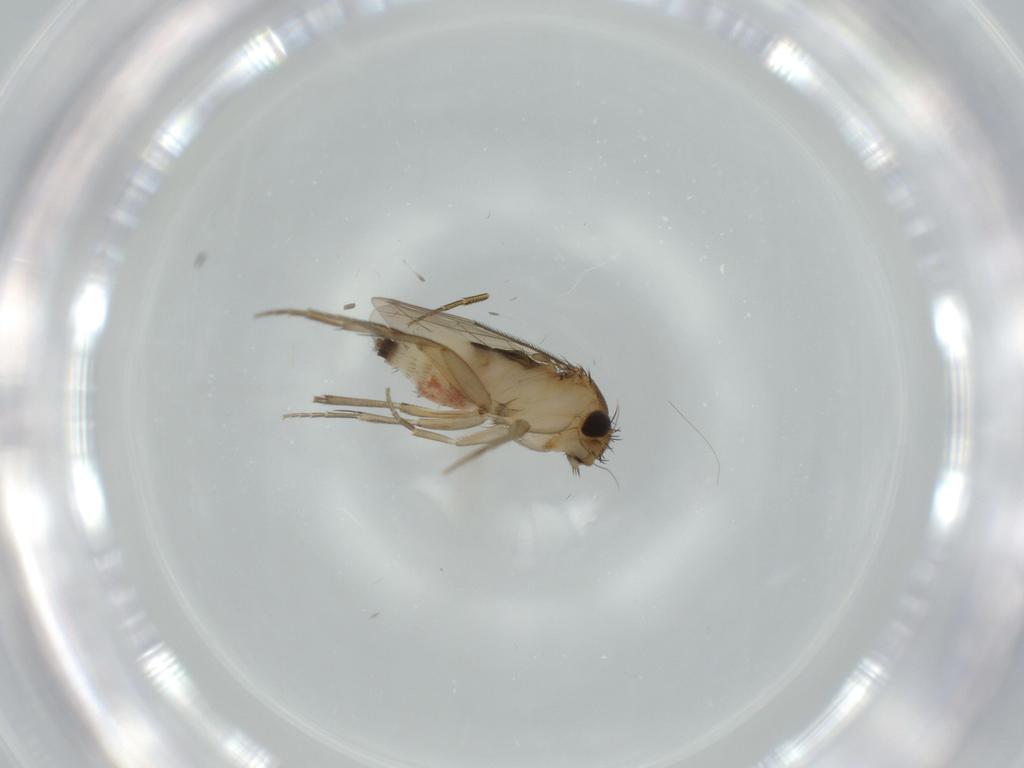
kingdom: Animalia
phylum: Arthropoda
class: Insecta
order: Diptera
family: Phoridae
